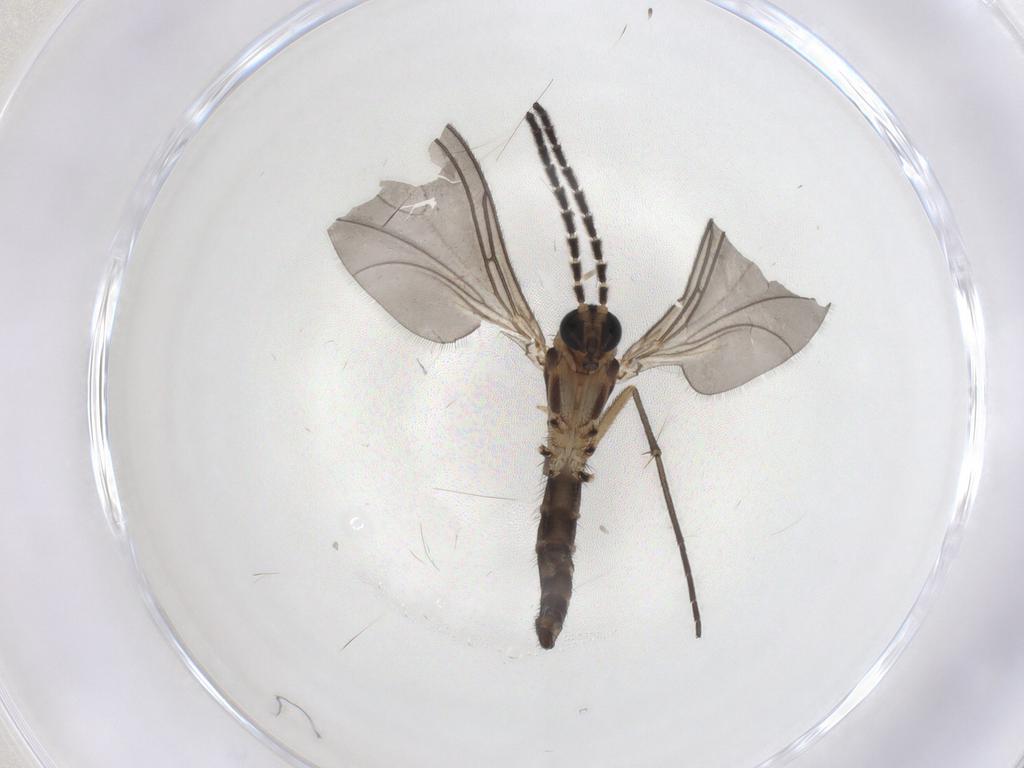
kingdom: Animalia
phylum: Arthropoda
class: Insecta
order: Diptera
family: Sciaridae
